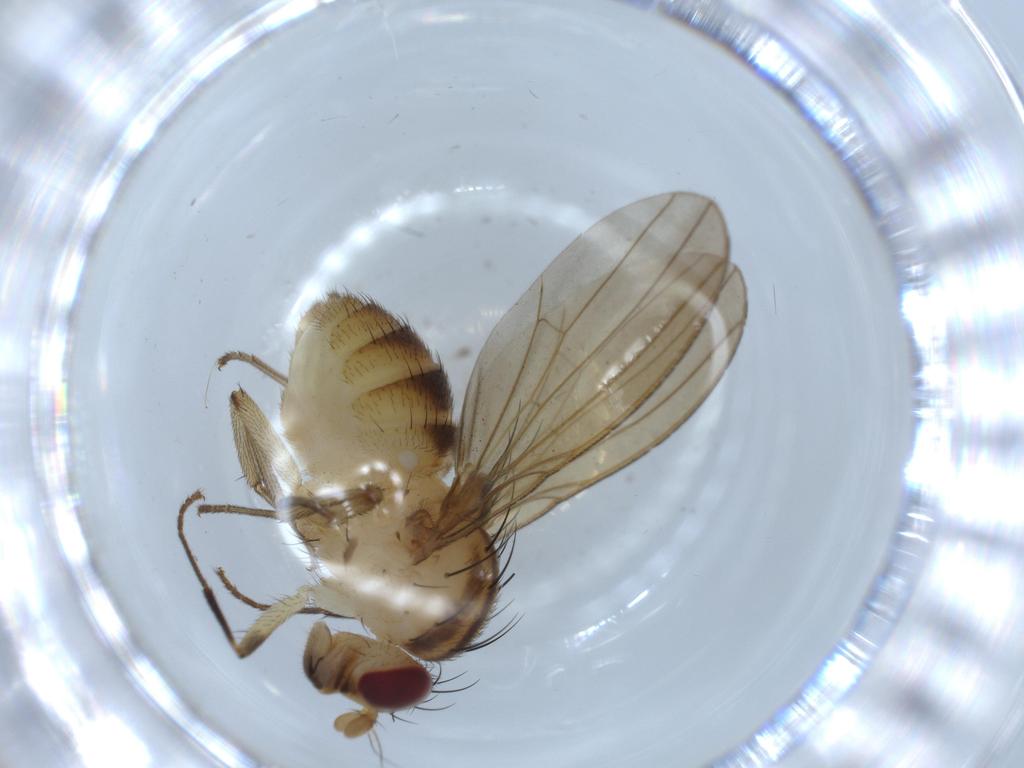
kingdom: Animalia
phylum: Arthropoda
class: Insecta
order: Diptera
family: Lauxaniidae
